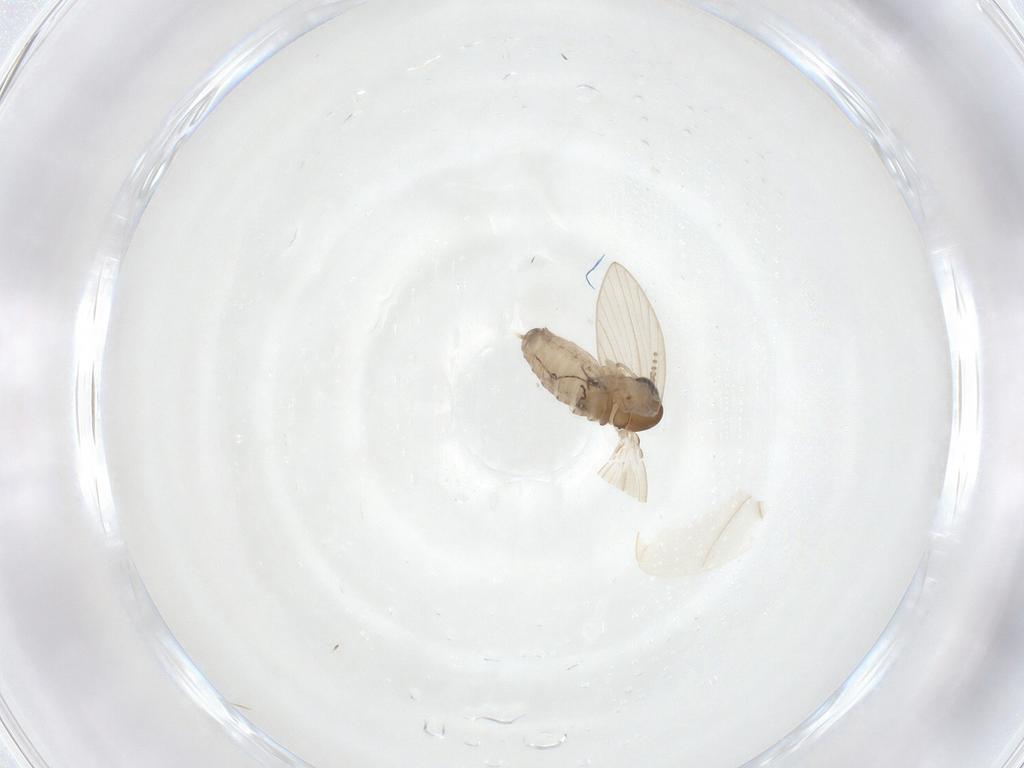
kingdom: Animalia
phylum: Arthropoda
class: Insecta
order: Diptera
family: Psychodidae
